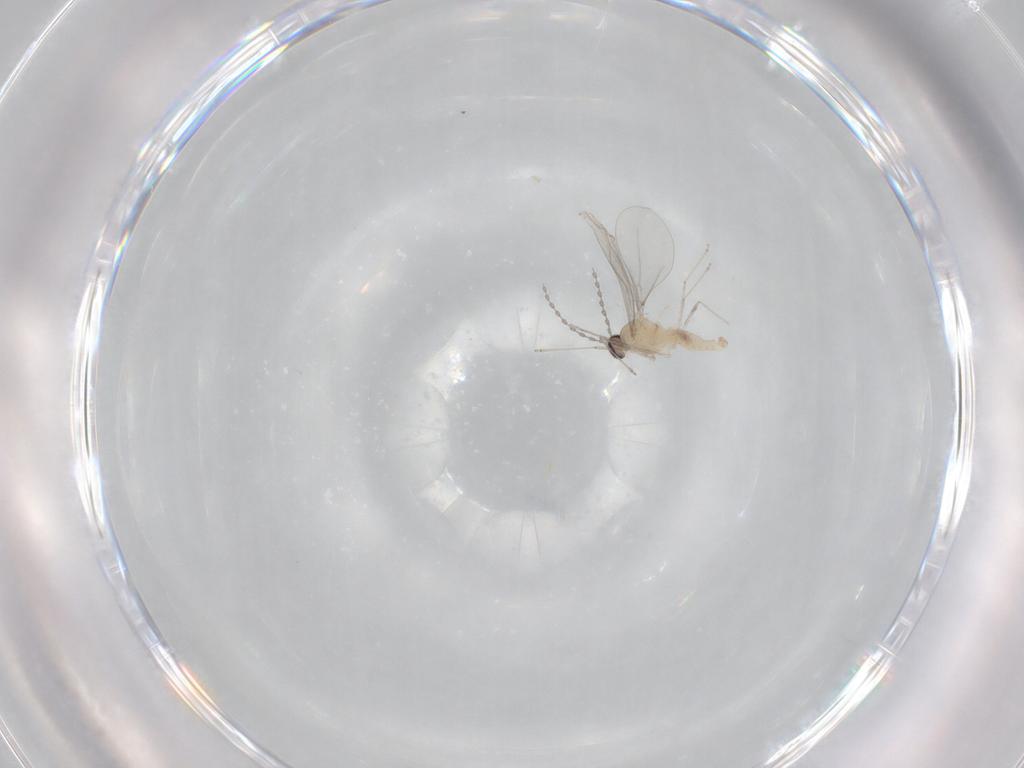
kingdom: Animalia
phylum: Arthropoda
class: Insecta
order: Diptera
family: Cecidomyiidae
